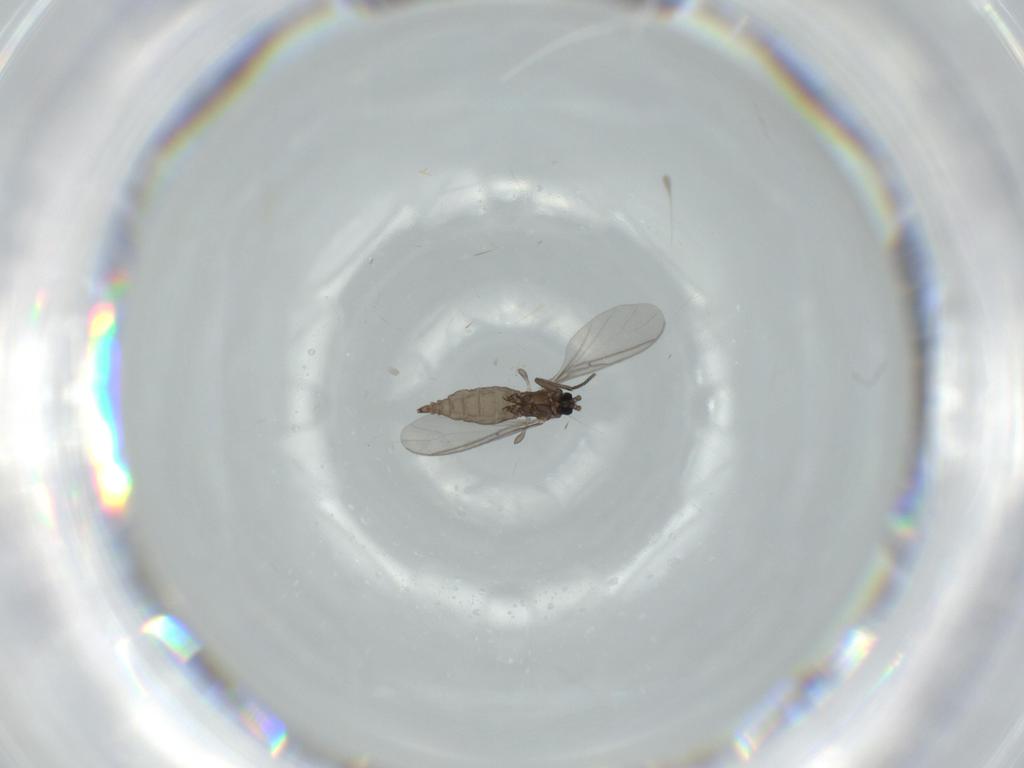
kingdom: Animalia
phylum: Arthropoda
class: Insecta
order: Diptera
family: Sciaridae
